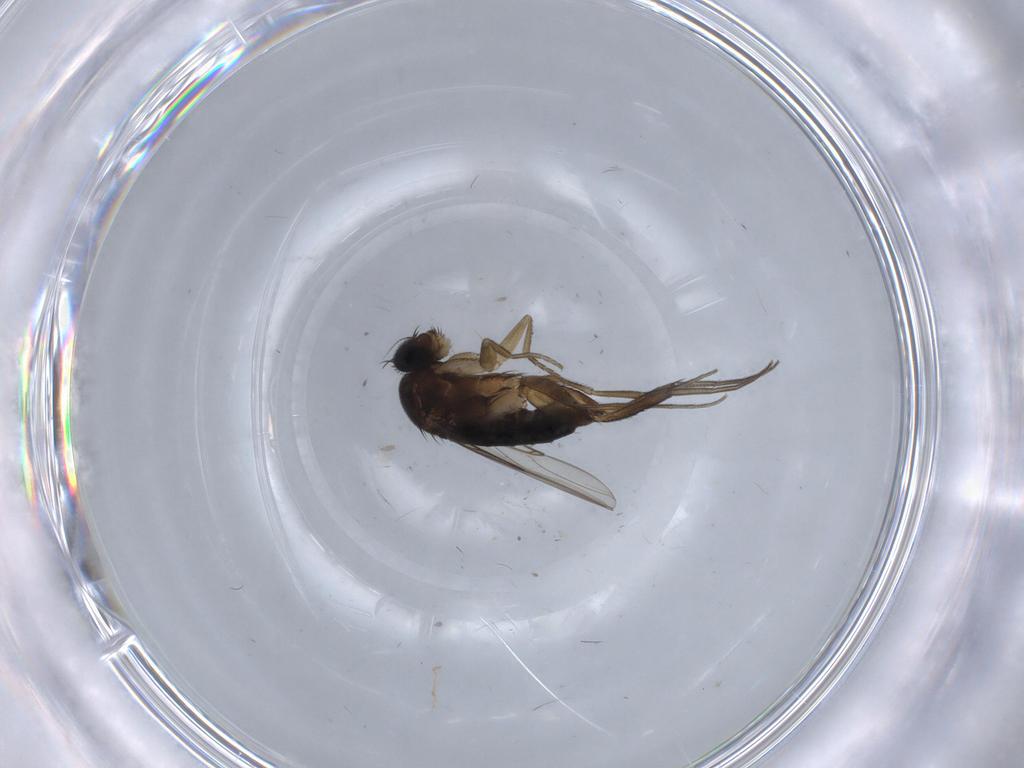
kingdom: Animalia
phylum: Arthropoda
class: Insecta
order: Diptera
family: Phoridae
